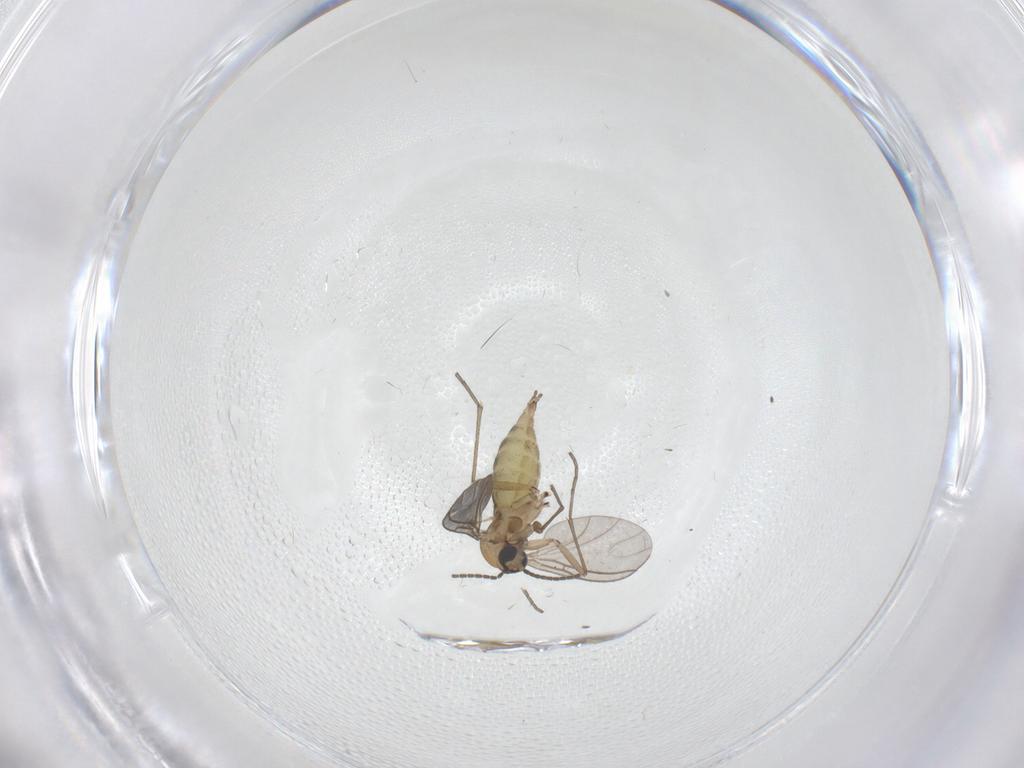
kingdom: Animalia
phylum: Arthropoda
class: Insecta
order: Diptera
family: Sciaridae
